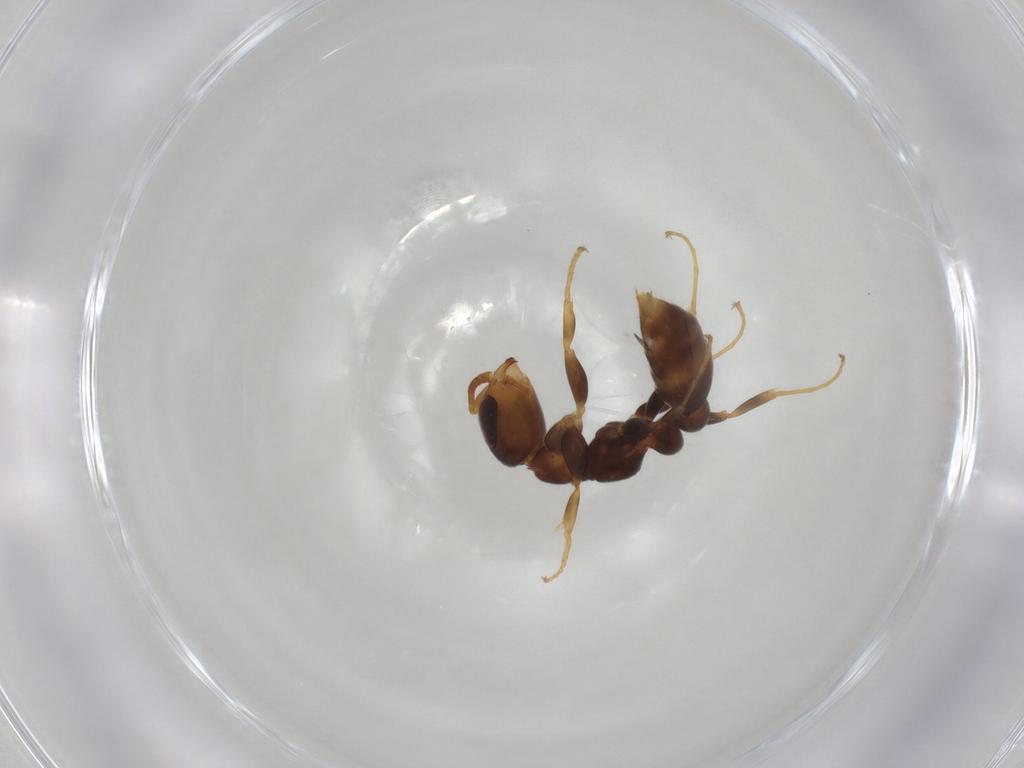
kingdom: Animalia
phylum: Arthropoda
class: Insecta
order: Hymenoptera
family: Formicidae
